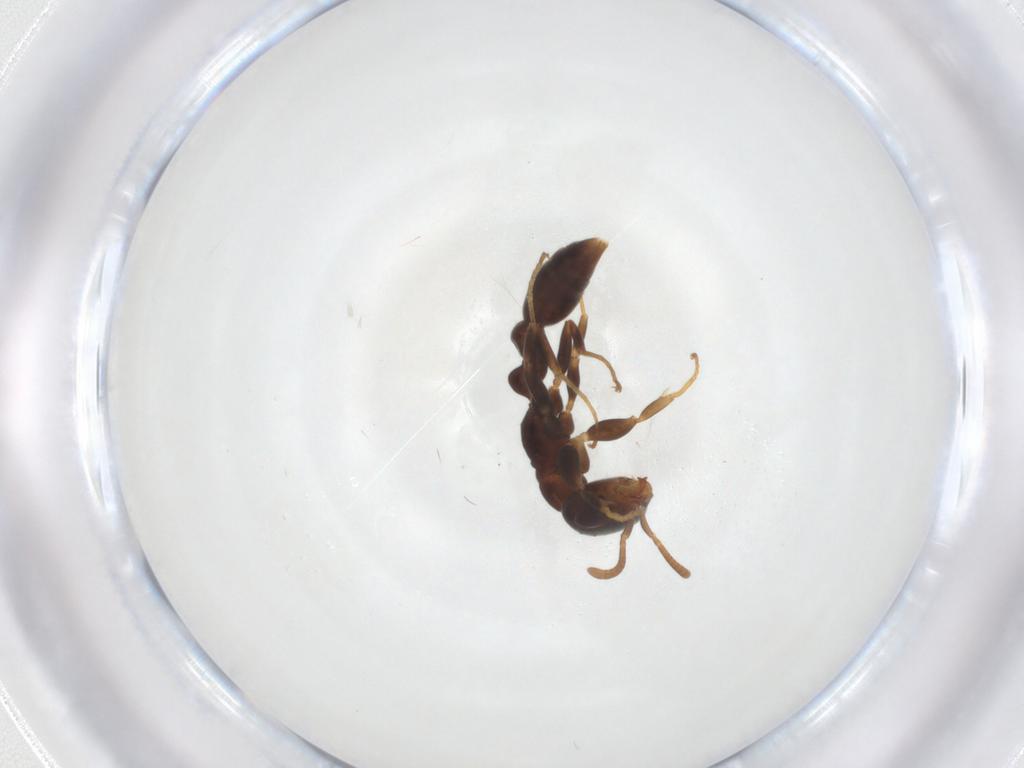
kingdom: Animalia
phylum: Arthropoda
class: Insecta
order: Hymenoptera
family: Formicidae
